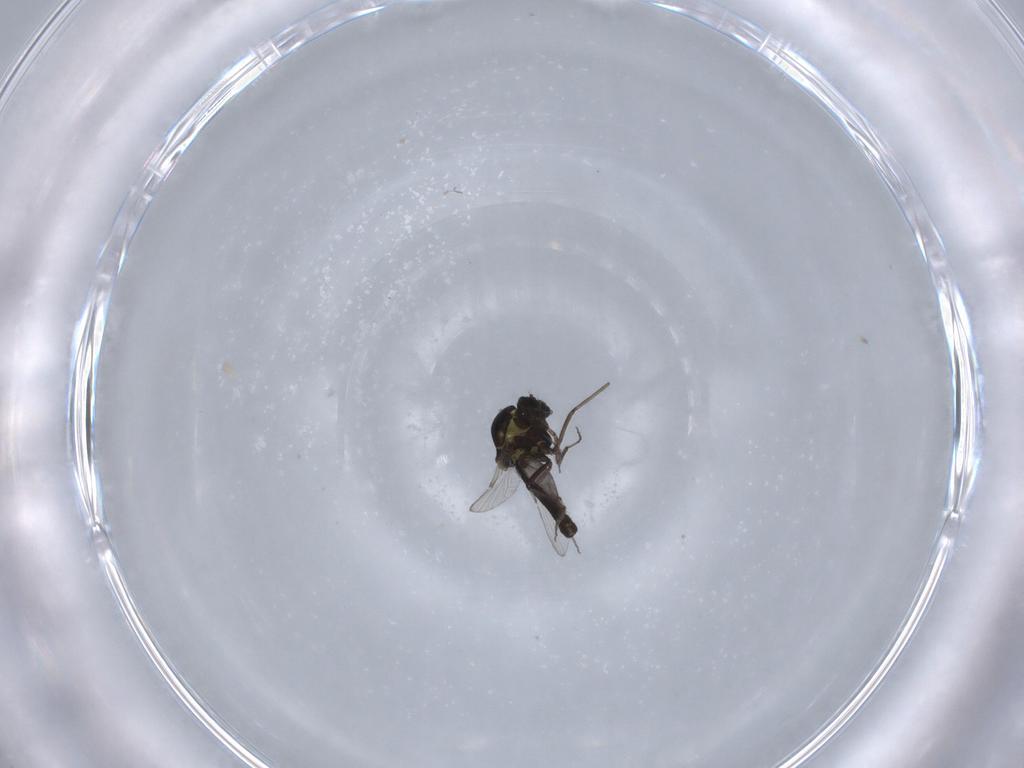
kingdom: Animalia
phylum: Arthropoda
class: Insecta
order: Diptera
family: Ceratopogonidae
